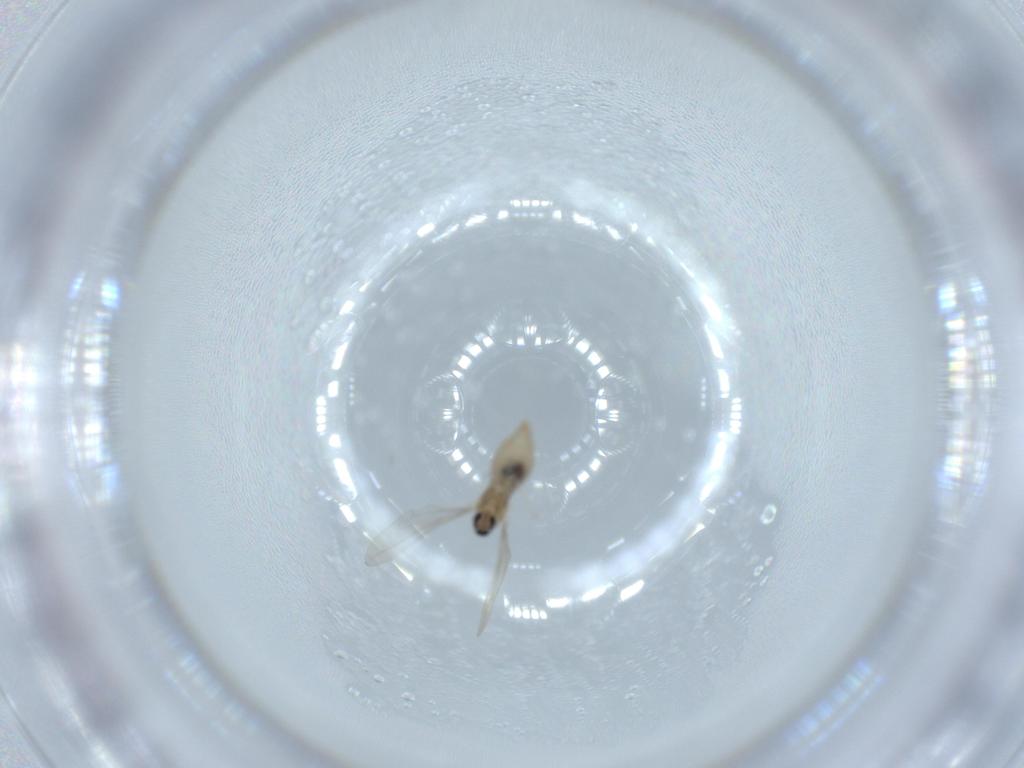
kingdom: Animalia
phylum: Arthropoda
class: Insecta
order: Diptera
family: Cecidomyiidae
